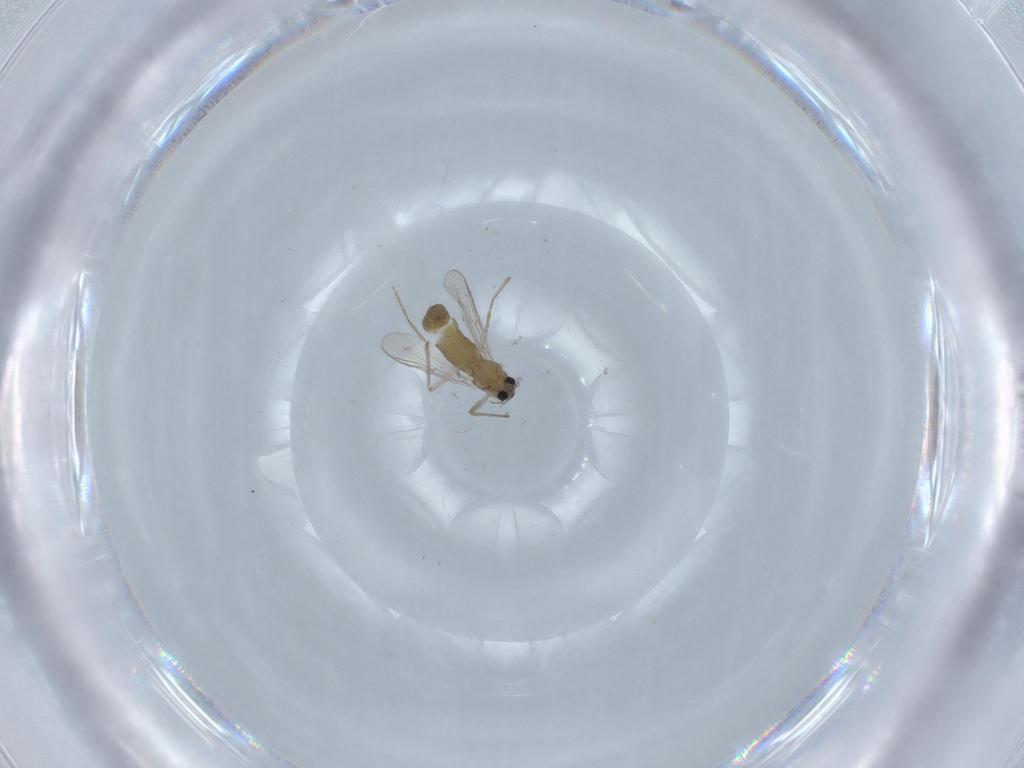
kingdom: Animalia
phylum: Arthropoda
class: Insecta
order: Diptera
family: Chironomidae
